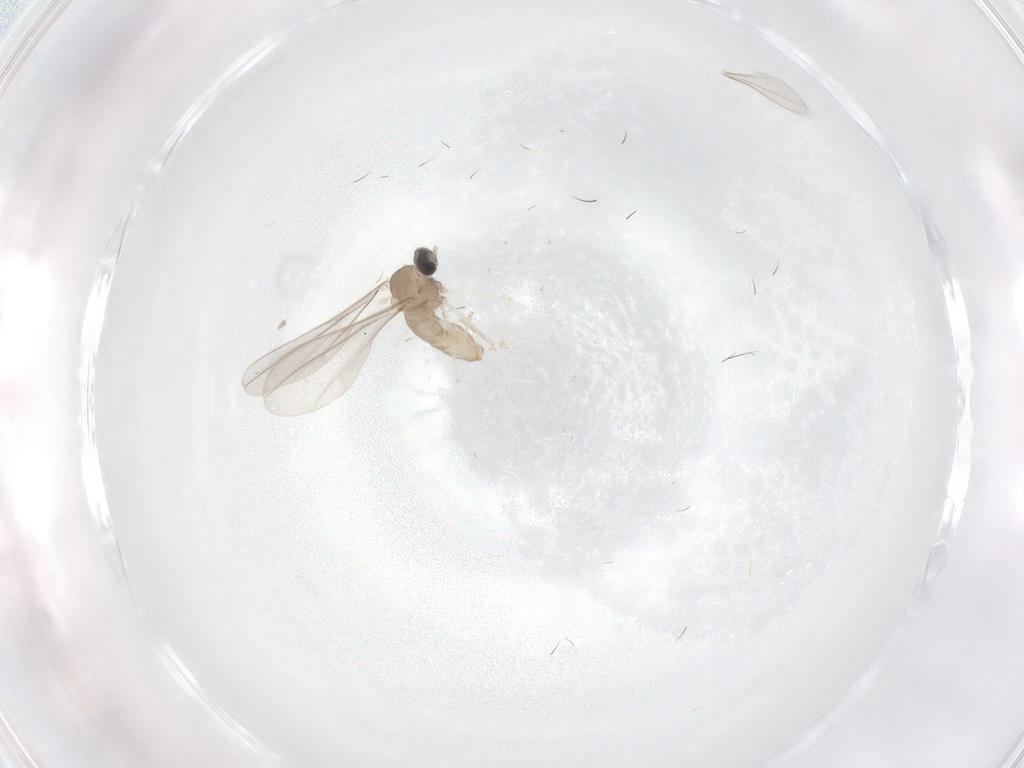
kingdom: Animalia
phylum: Arthropoda
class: Insecta
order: Diptera
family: Cecidomyiidae
